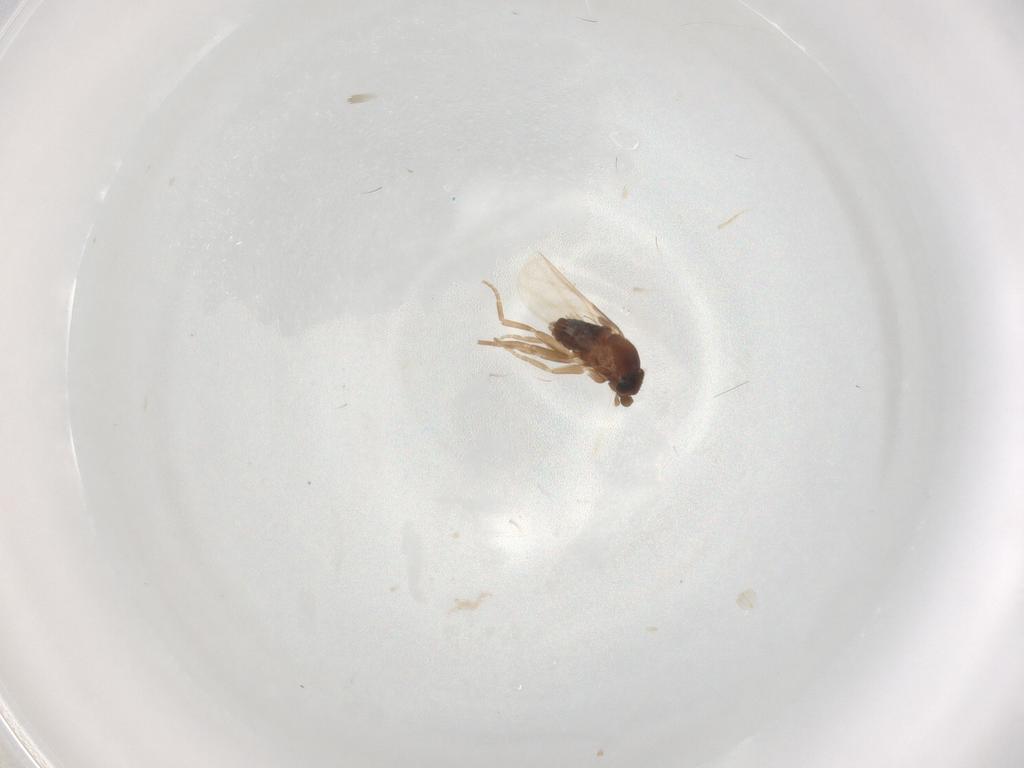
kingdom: Animalia
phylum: Arthropoda
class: Insecta
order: Diptera
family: Phoridae
